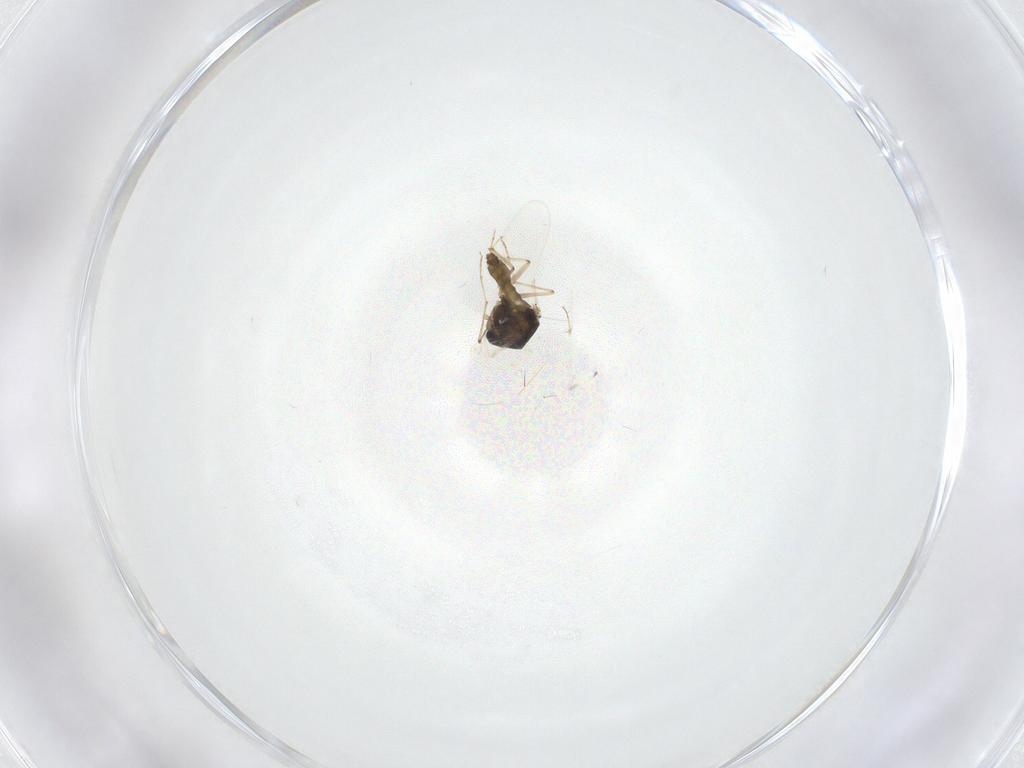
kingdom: Animalia
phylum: Arthropoda
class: Insecta
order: Diptera
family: Chironomidae
